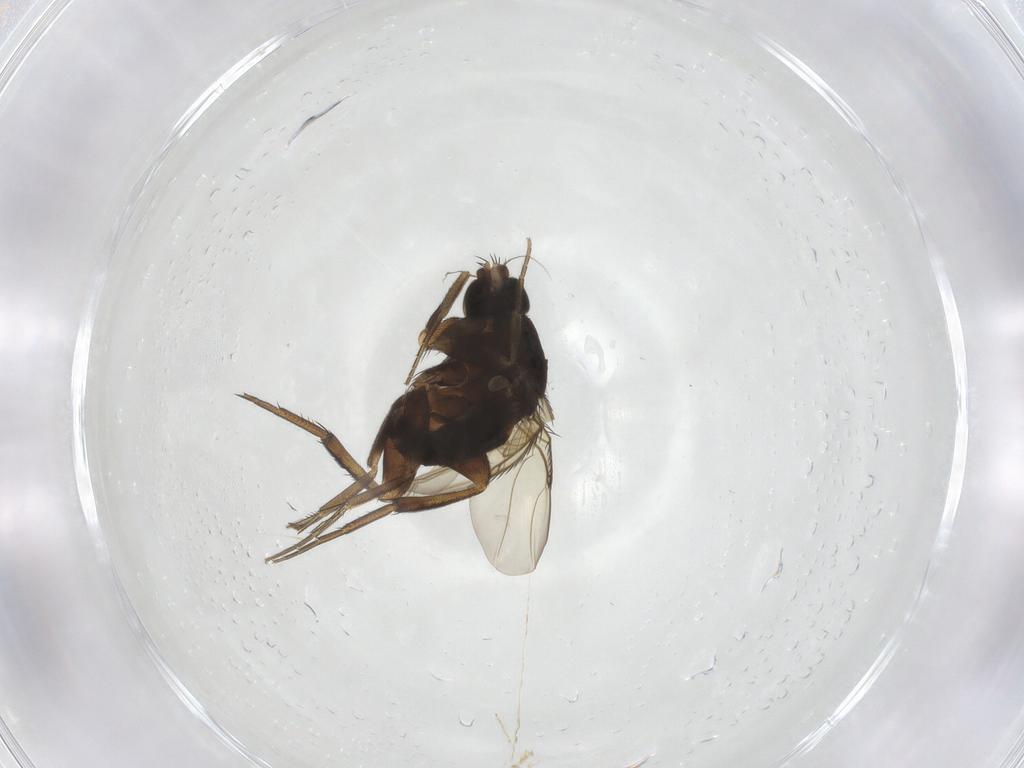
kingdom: Animalia
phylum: Arthropoda
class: Insecta
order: Diptera
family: Phoridae
